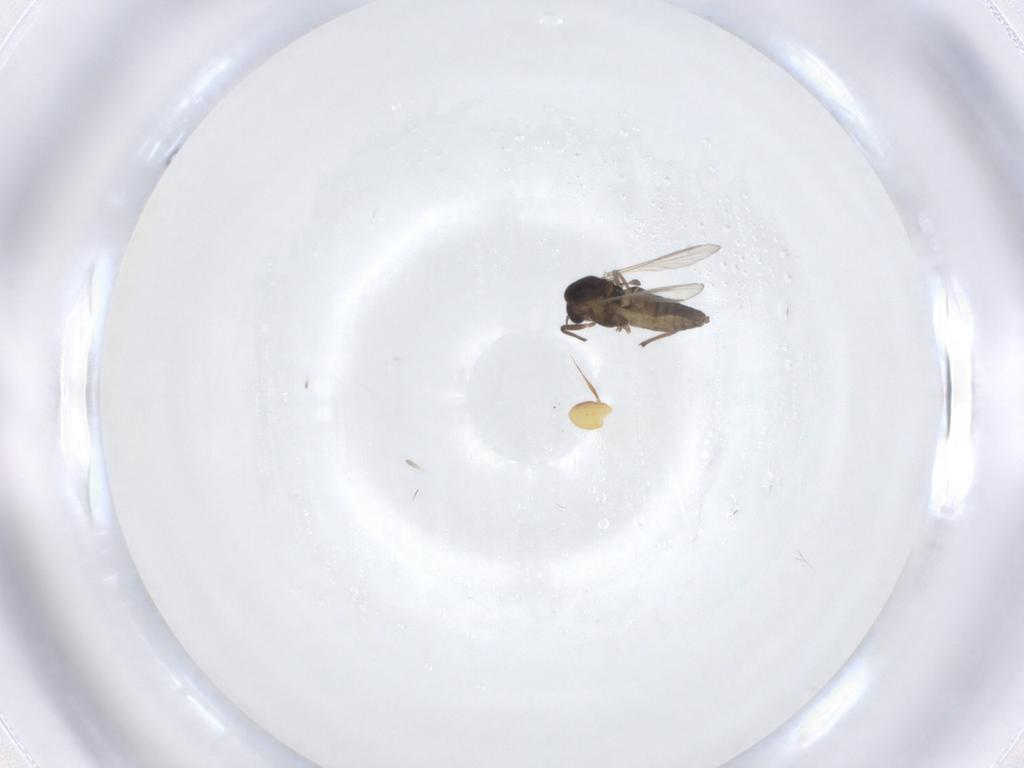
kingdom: Animalia
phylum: Arthropoda
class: Insecta
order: Diptera
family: Chironomidae
